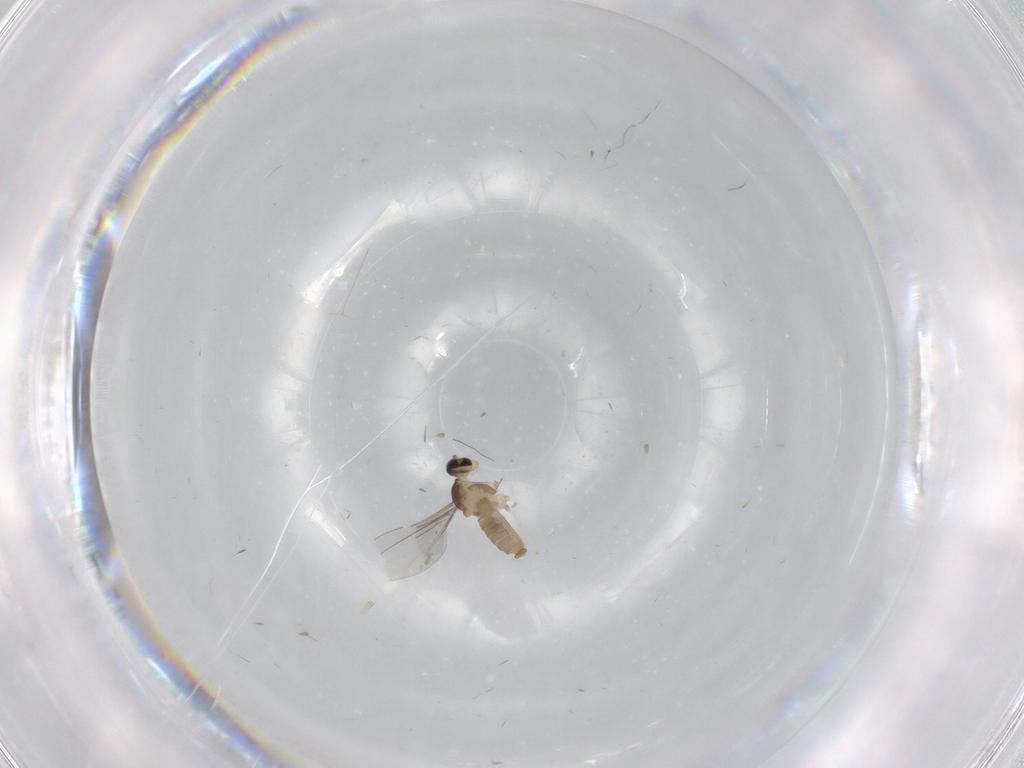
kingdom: Animalia
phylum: Arthropoda
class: Insecta
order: Diptera
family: Cecidomyiidae
